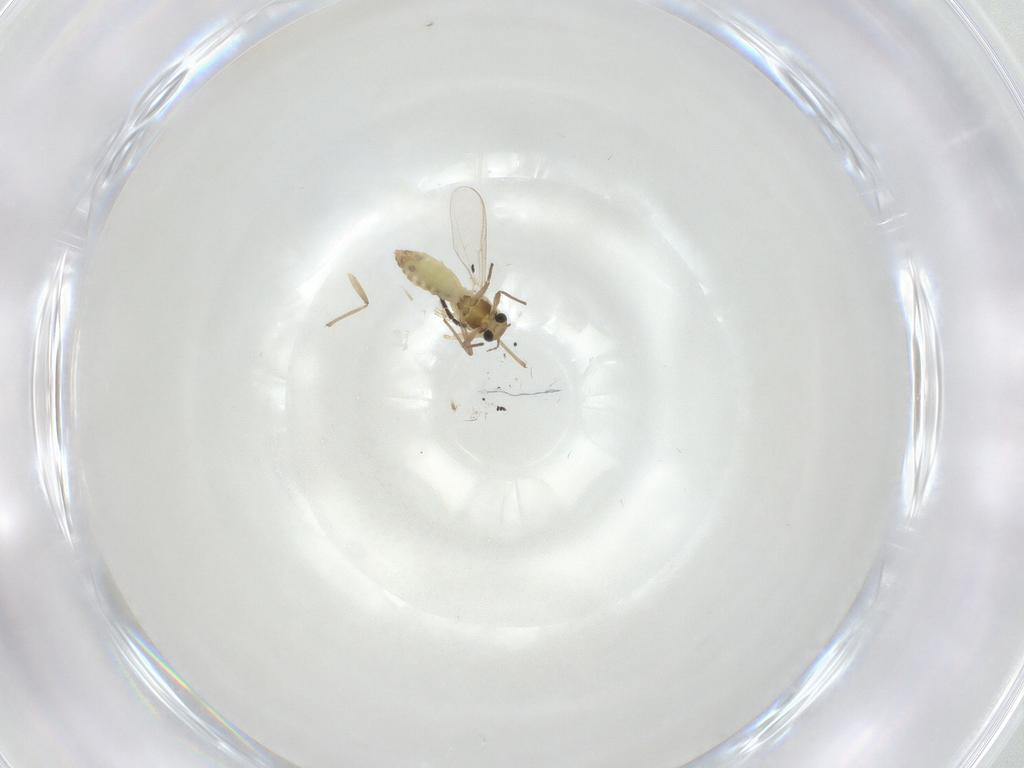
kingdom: Animalia
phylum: Arthropoda
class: Insecta
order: Diptera
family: Chironomidae
